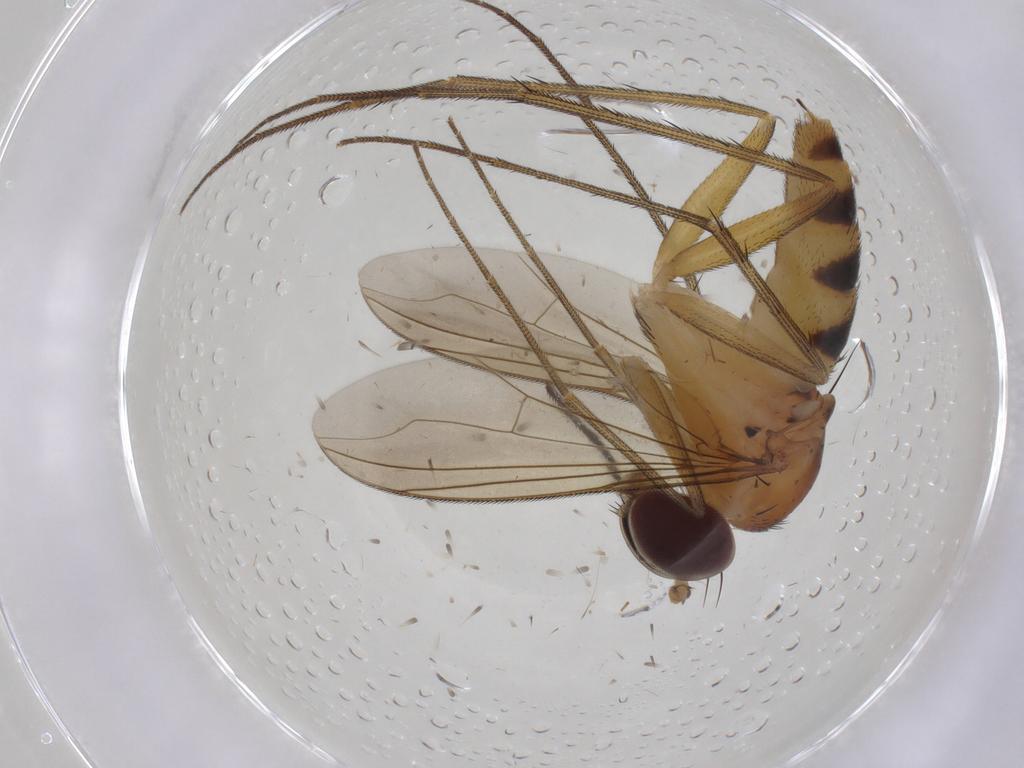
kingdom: Animalia
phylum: Arthropoda
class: Insecta
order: Diptera
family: Dolichopodidae
